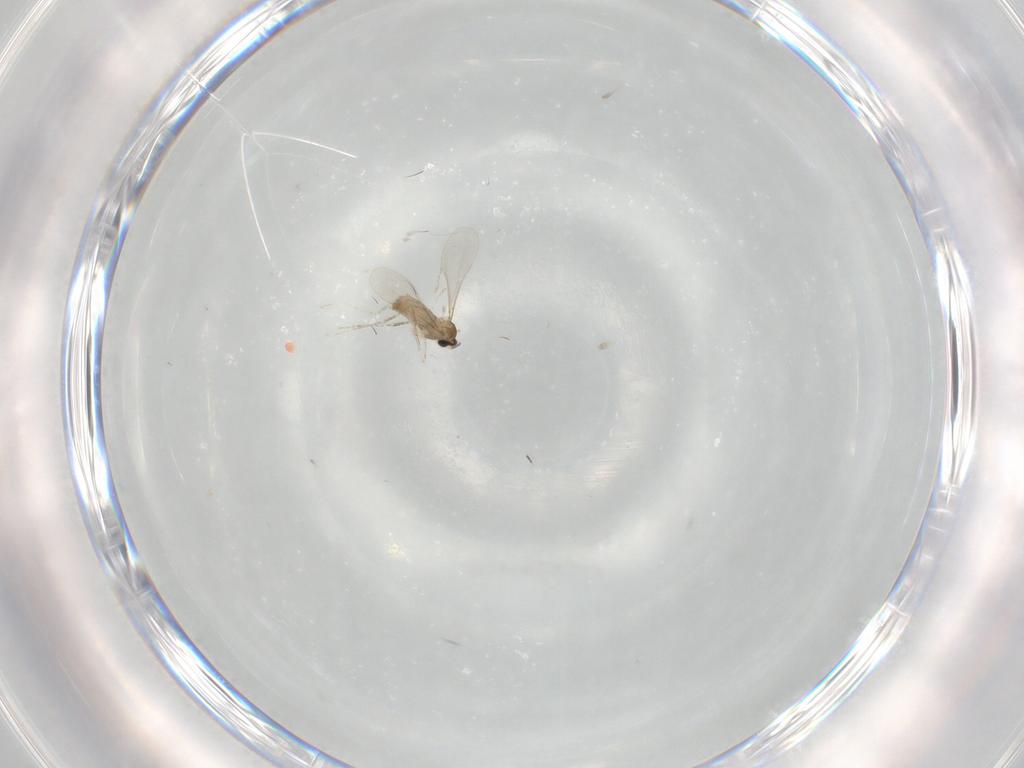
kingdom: Animalia
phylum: Arthropoda
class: Insecta
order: Diptera
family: Cecidomyiidae
